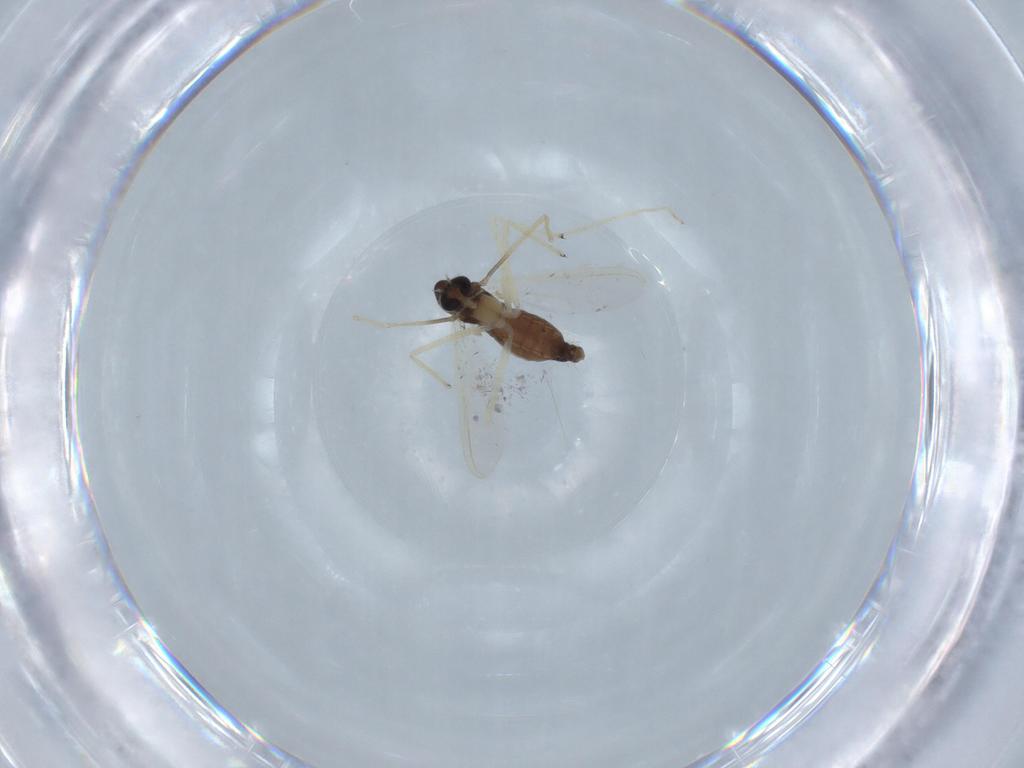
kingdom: Animalia
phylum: Arthropoda
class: Insecta
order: Diptera
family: Chironomidae
